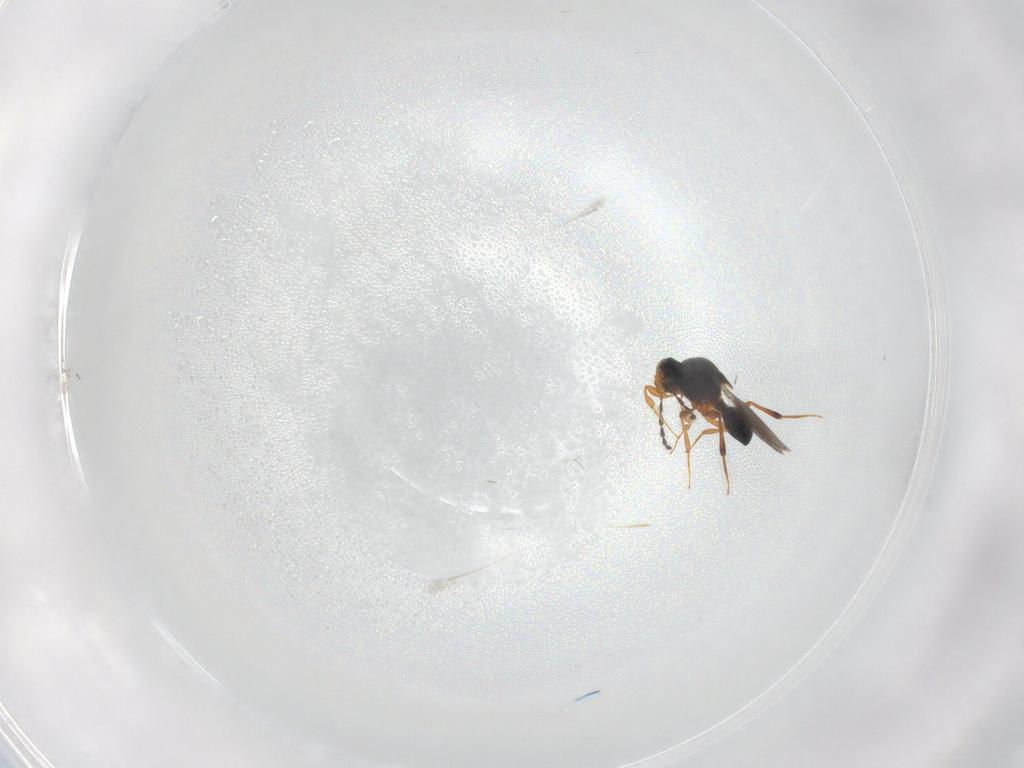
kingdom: Animalia
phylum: Arthropoda
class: Insecta
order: Hymenoptera
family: Platygastridae
